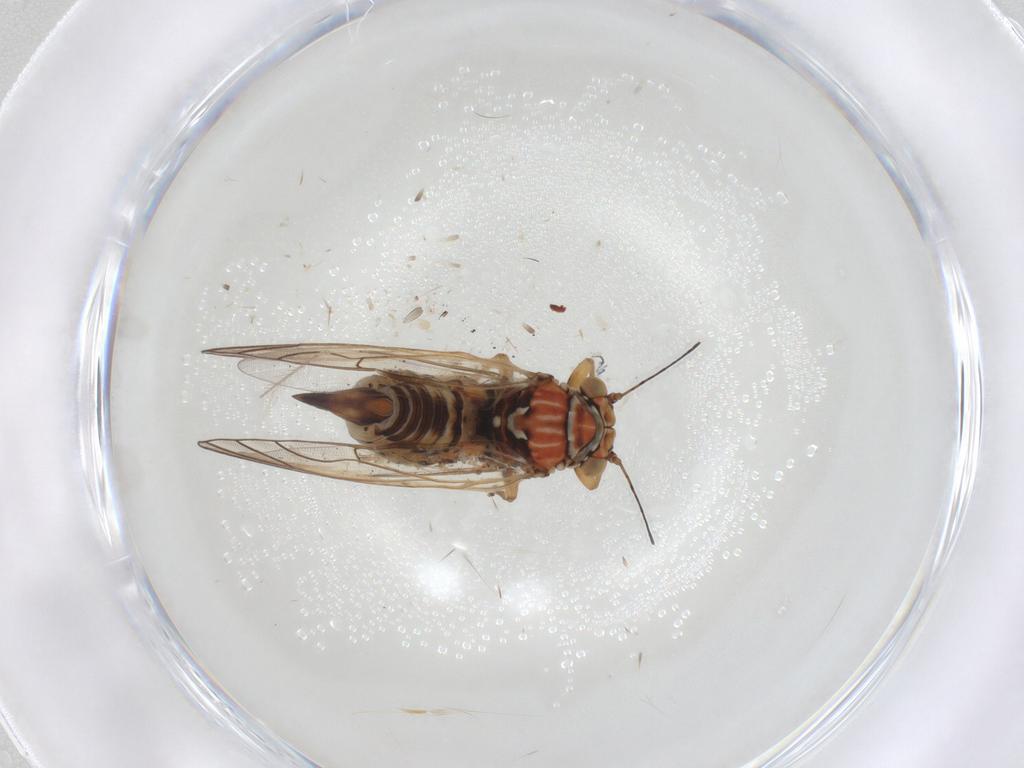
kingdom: Animalia
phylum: Arthropoda
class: Insecta
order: Hemiptera
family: Psyllidae
